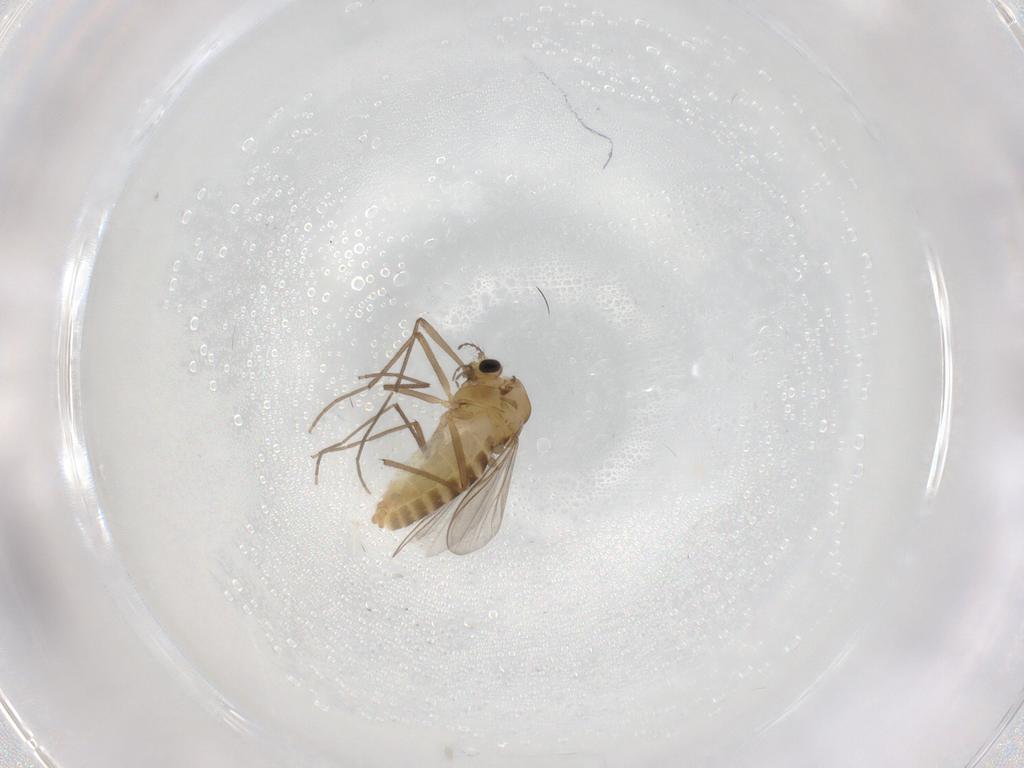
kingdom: Animalia
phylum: Arthropoda
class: Insecta
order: Diptera
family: Chironomidae
